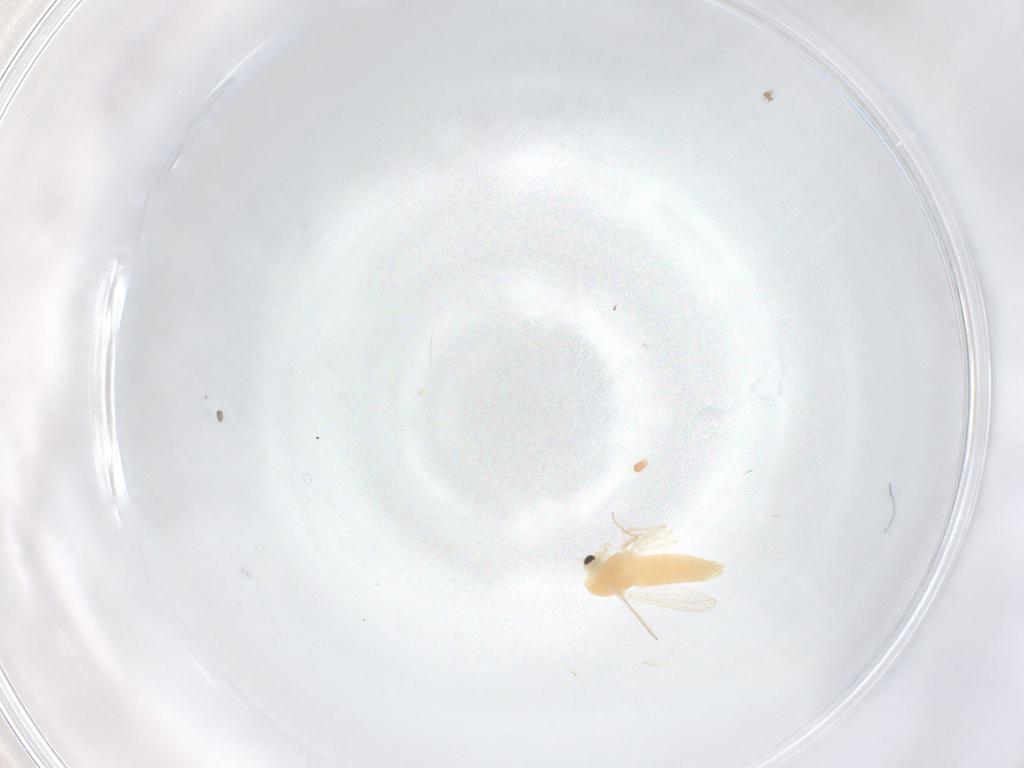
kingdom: Animalia
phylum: Arthropoda
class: Insecta
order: Diptera
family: Chironomidae
